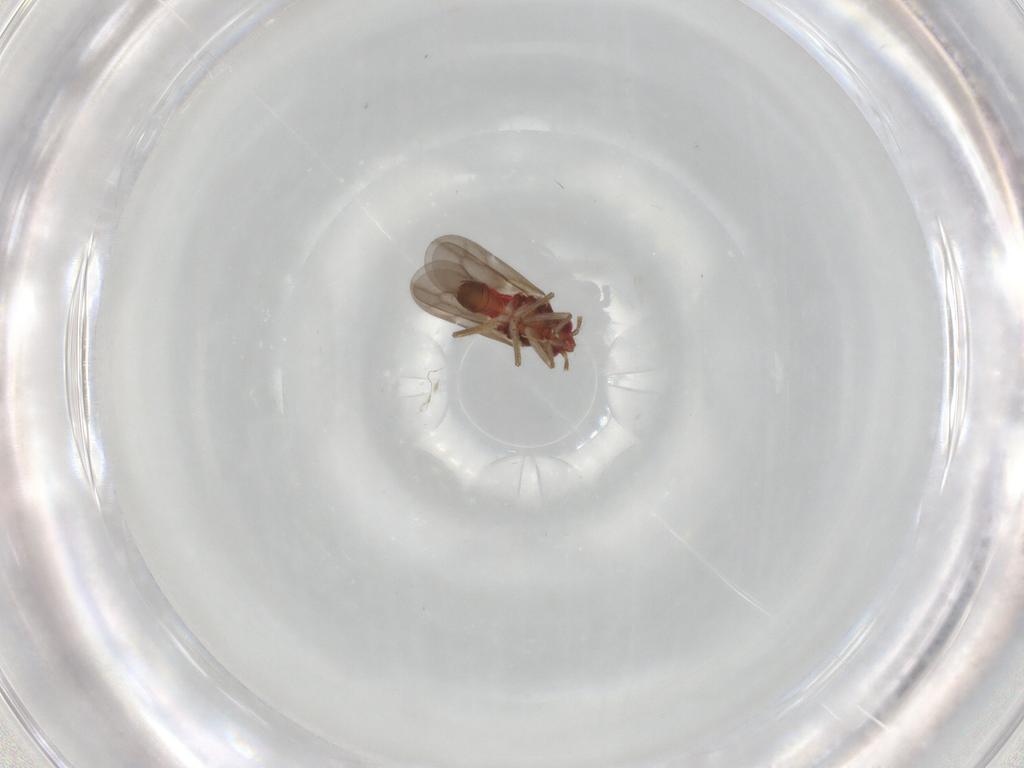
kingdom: Animalia
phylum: Arthropoda
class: Insecta
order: Hemiptera
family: Ceratocombidae
